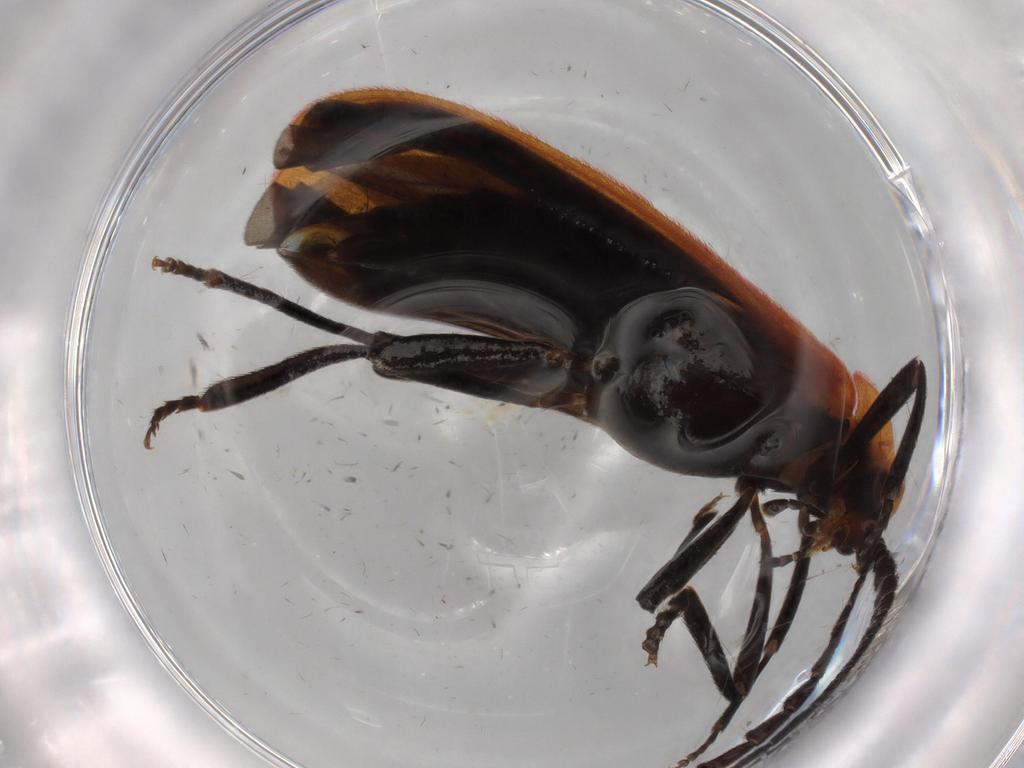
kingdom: Animalia
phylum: Arthropoda
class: Insecta
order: Coleoptera
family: Lycidae
